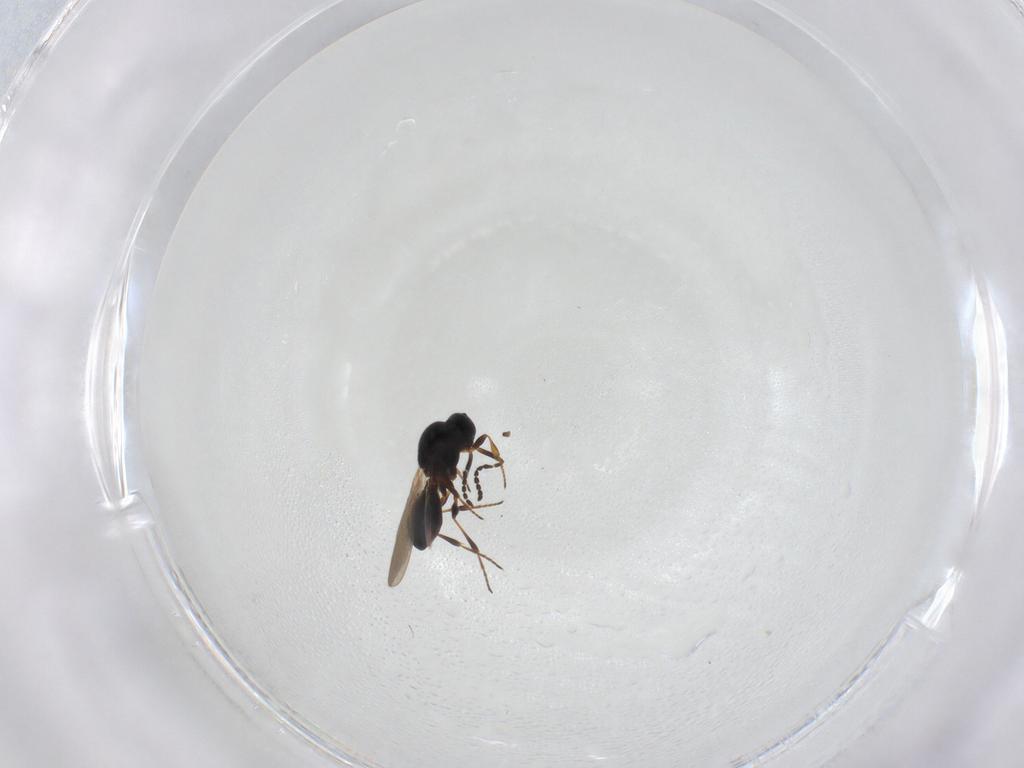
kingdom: Animalia
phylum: Arthropoda
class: Insecta
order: Hymenoptera
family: Platygastridae
